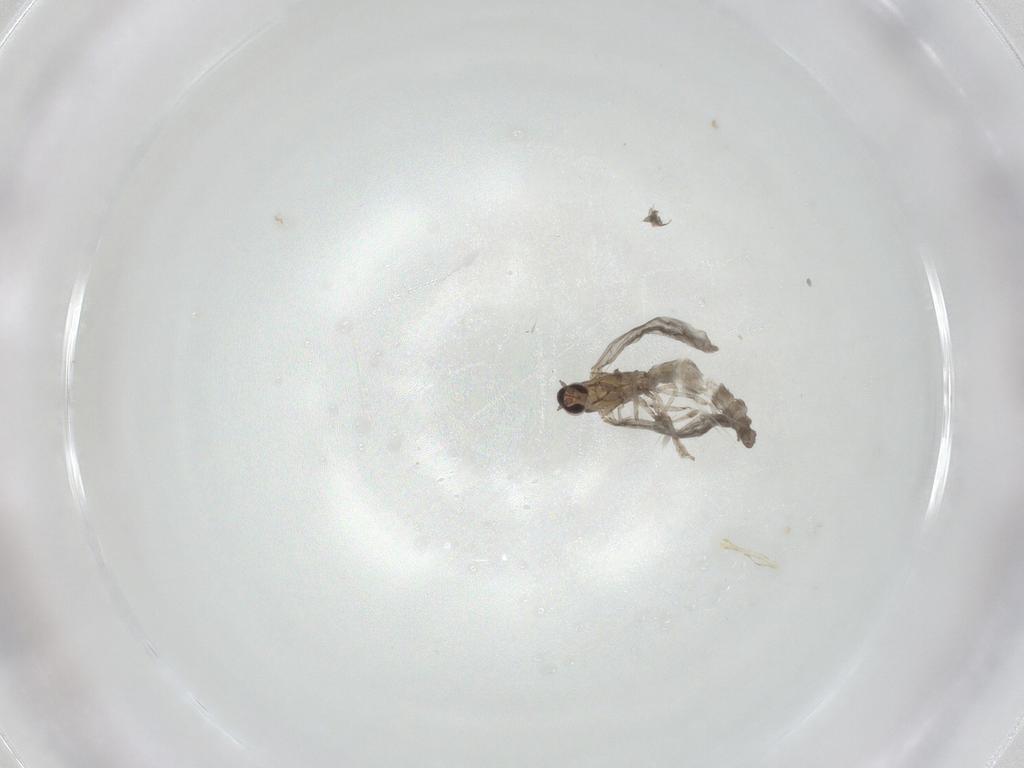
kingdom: Animalia
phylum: Arthropoda
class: Insecta
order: Diptera
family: Cecidomyiidae
